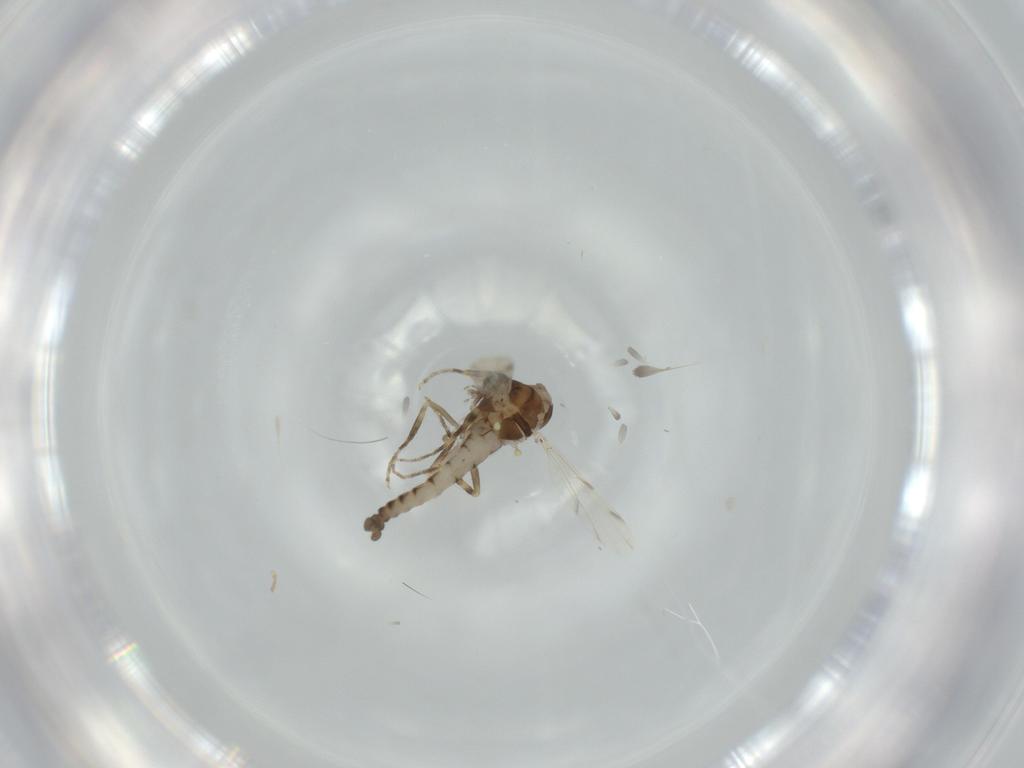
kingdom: Animalia
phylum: Arthropoda
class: Insecta
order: Diptera
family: Ceratopogonidae
